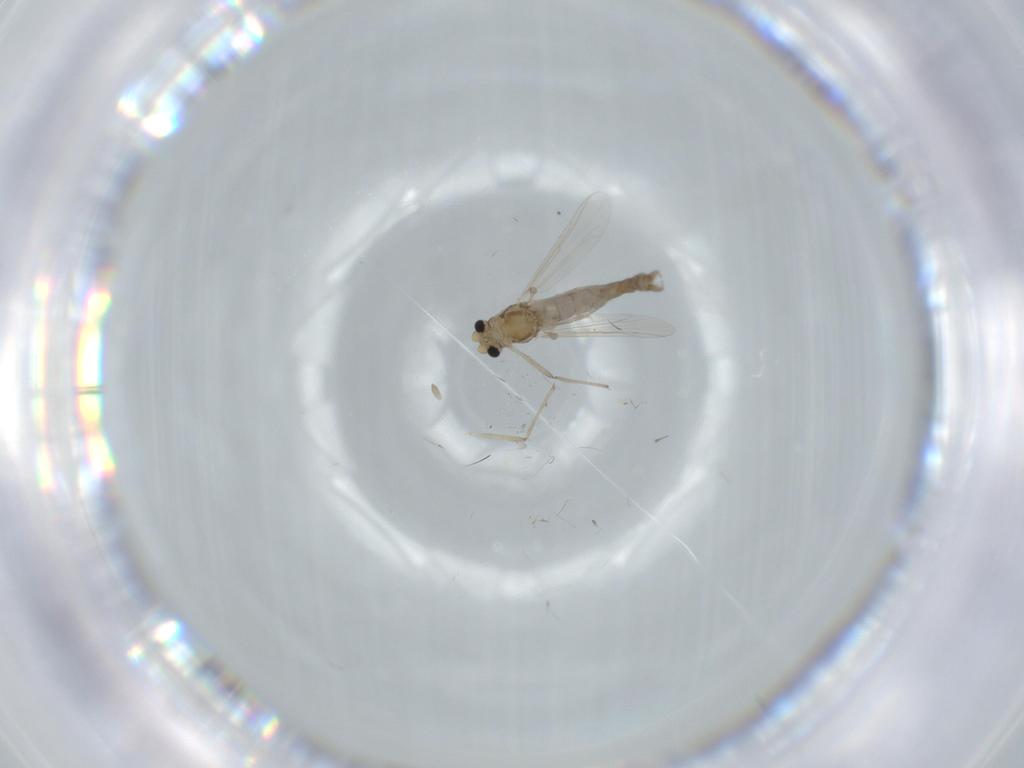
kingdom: Animalia
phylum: Arthropoda
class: Insecta
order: Diptera
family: Chironomidae
